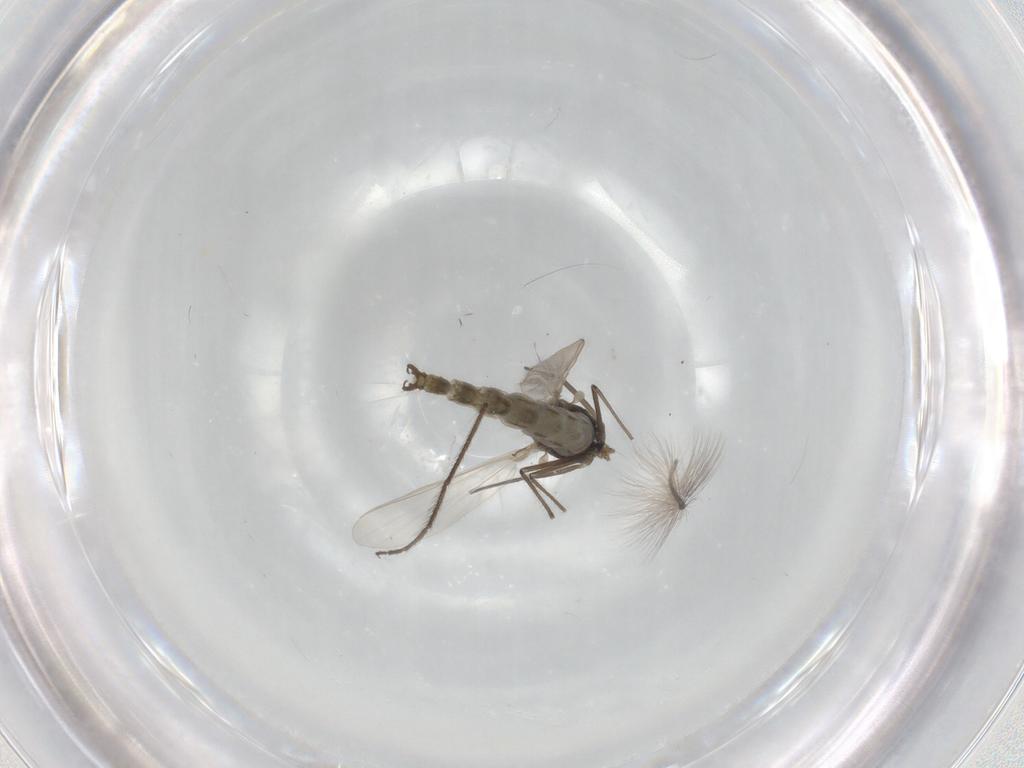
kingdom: Animalia
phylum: Arthropoda
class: Insecta
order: Diptera
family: Chironomidae
